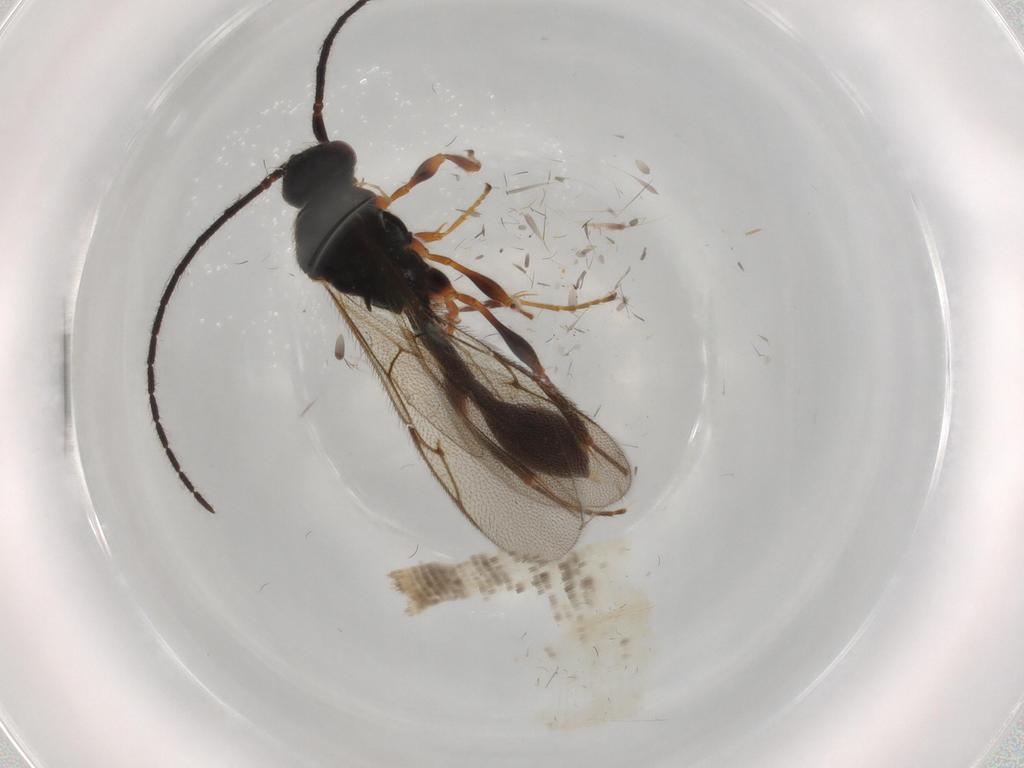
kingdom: Animalia
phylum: Arthropoda
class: Insecta
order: Hymenoptera
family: Diapriidae
